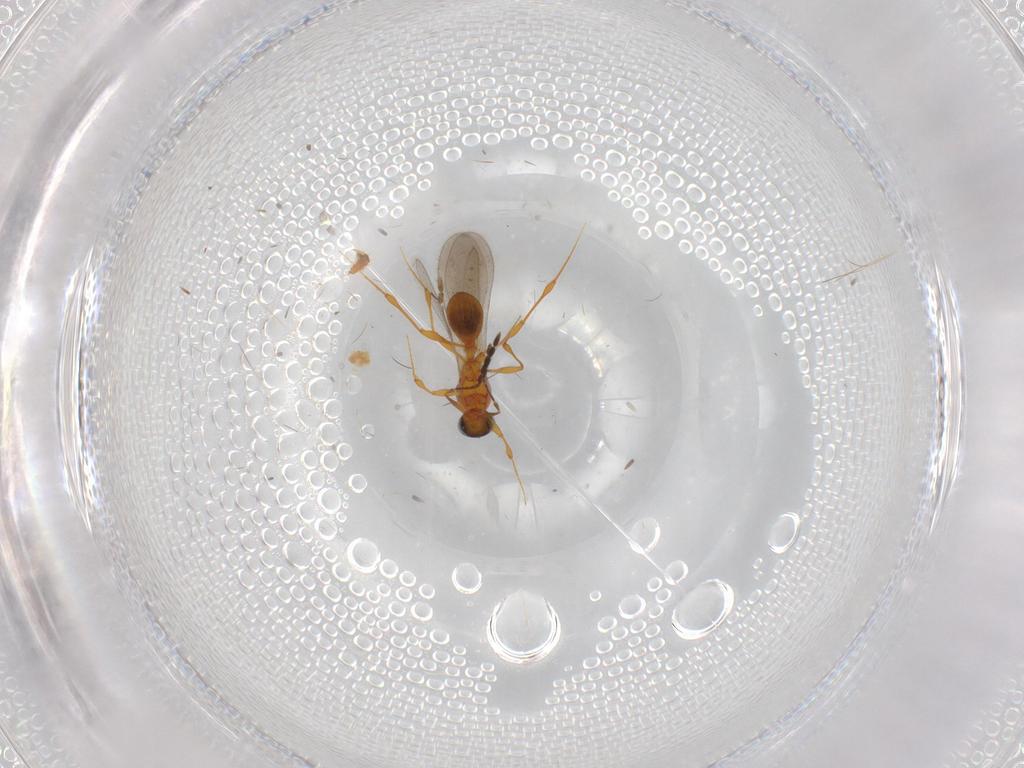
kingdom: Animalia
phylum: Arthropoda
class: Insecta
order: Hymenoptera
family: Platygastridae
